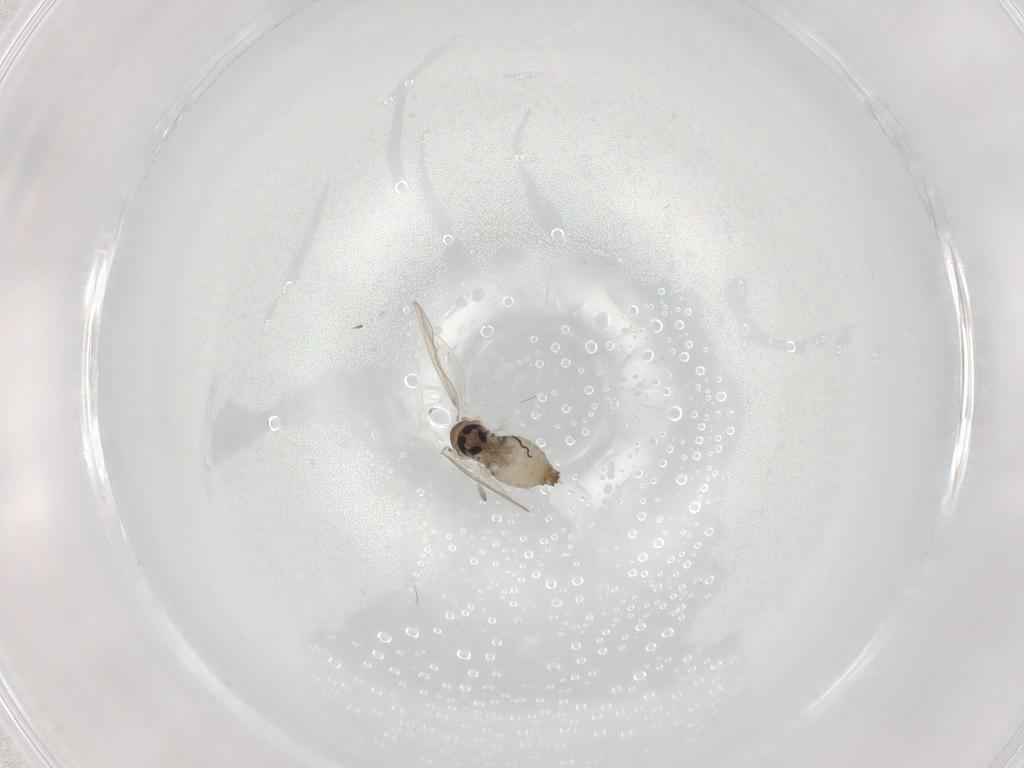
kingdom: Animalia
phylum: Arthropoda
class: Insecta
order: Diptera
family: Psychodidae
